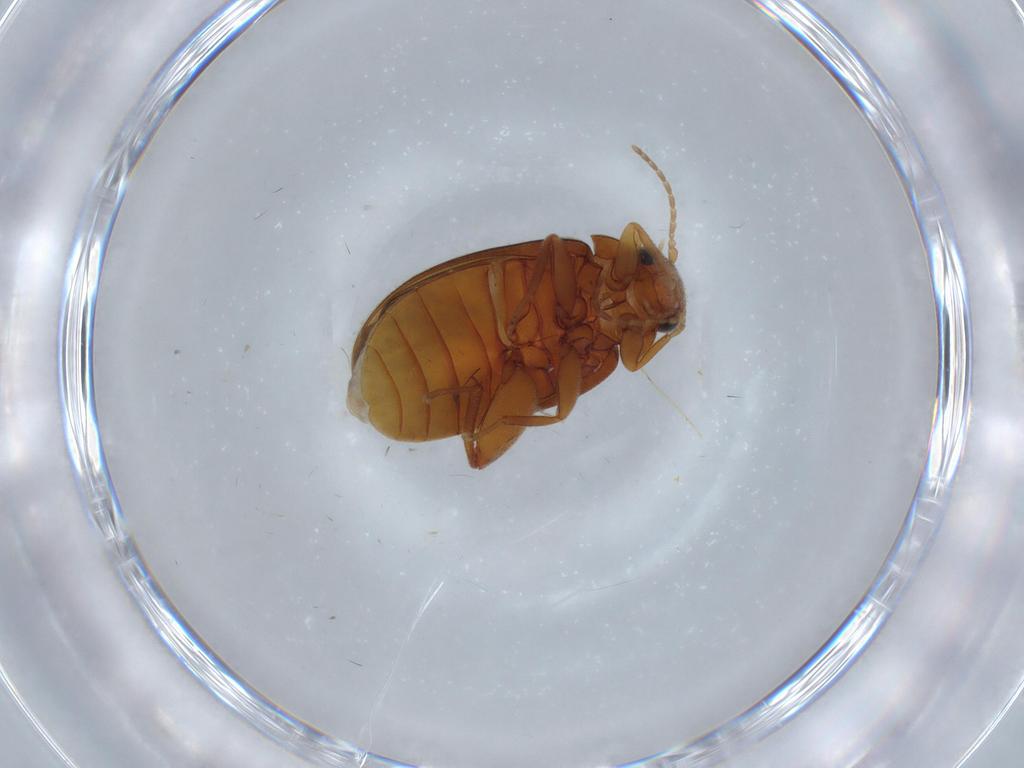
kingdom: Animalia
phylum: Arthropoda
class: Insecta
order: Coleoptera
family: Scirtidae
